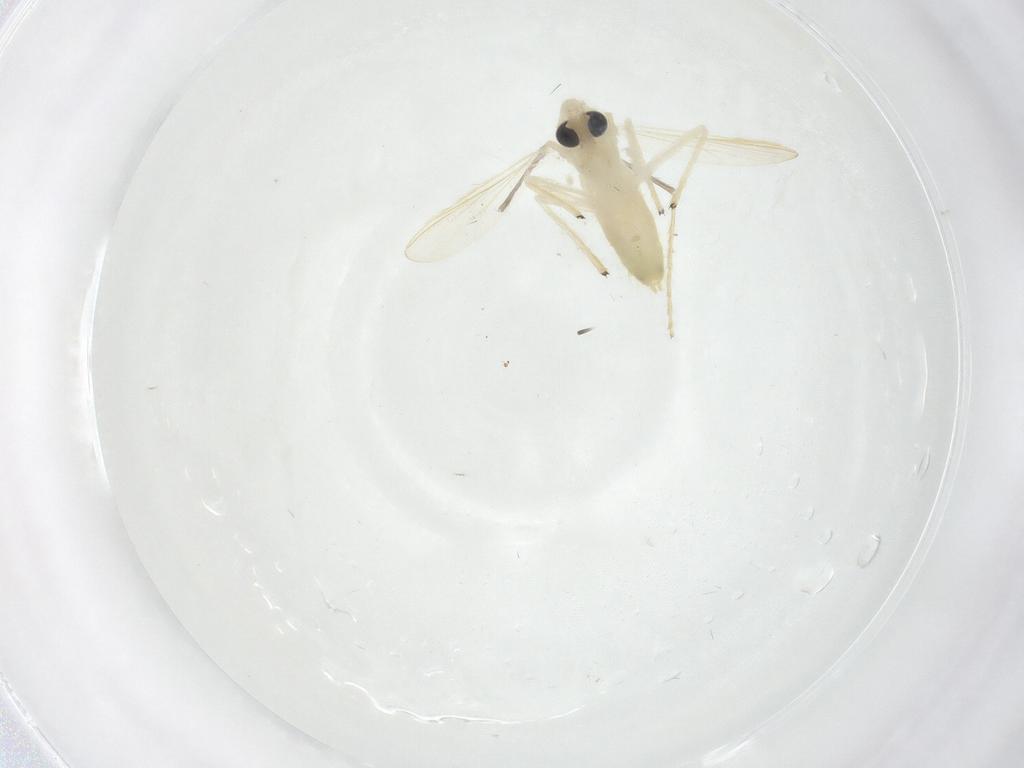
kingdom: Animalia
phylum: Arthropoda
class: Insecta
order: Diptera
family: Chironomidae
